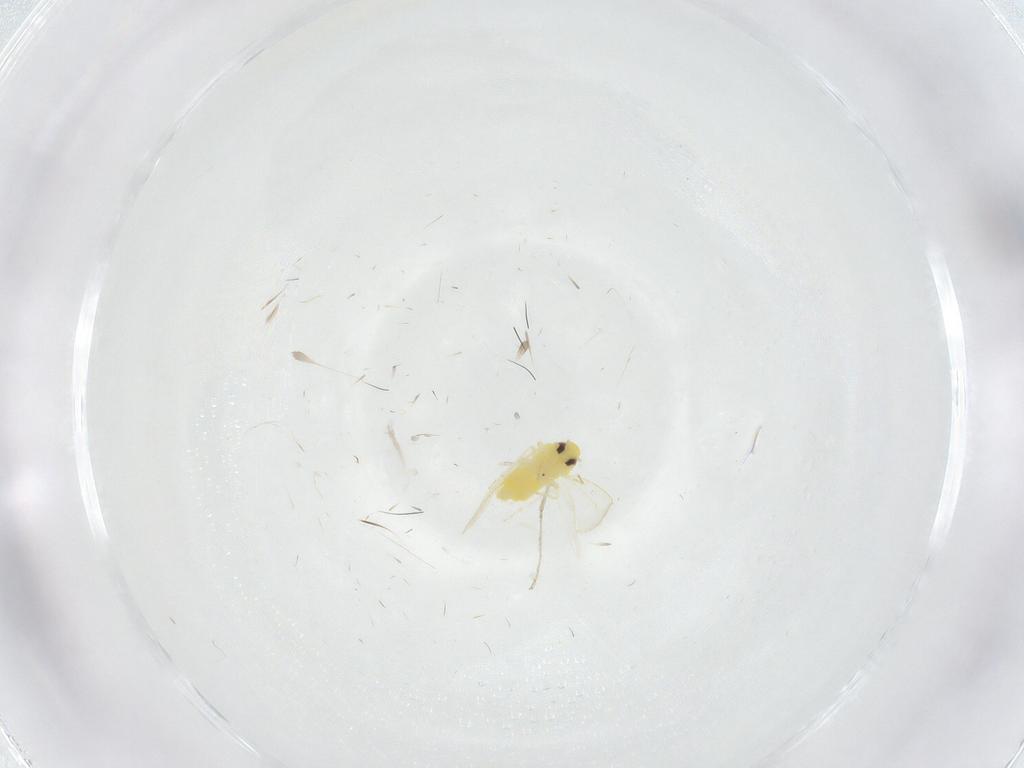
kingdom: Animalia
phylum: Arthropoda
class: Insecta
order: Hemiptera
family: Aleyrodidae
